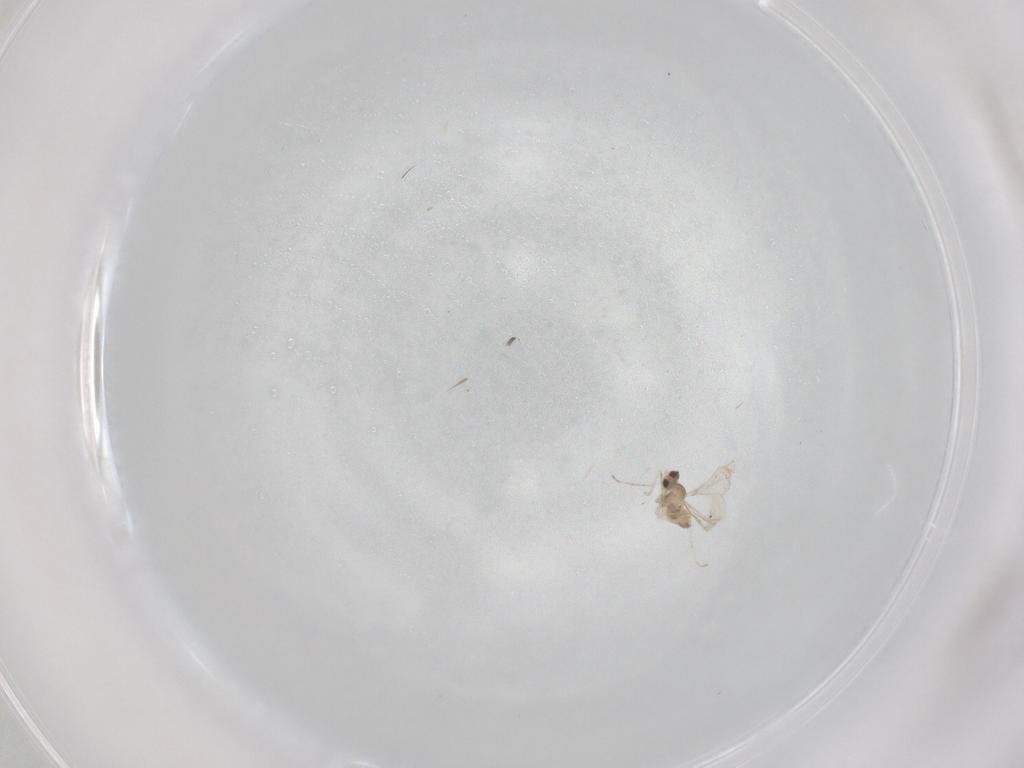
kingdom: Animalia
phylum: Arthropoda
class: Insecta
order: Diptera
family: Cecidomyiidae
